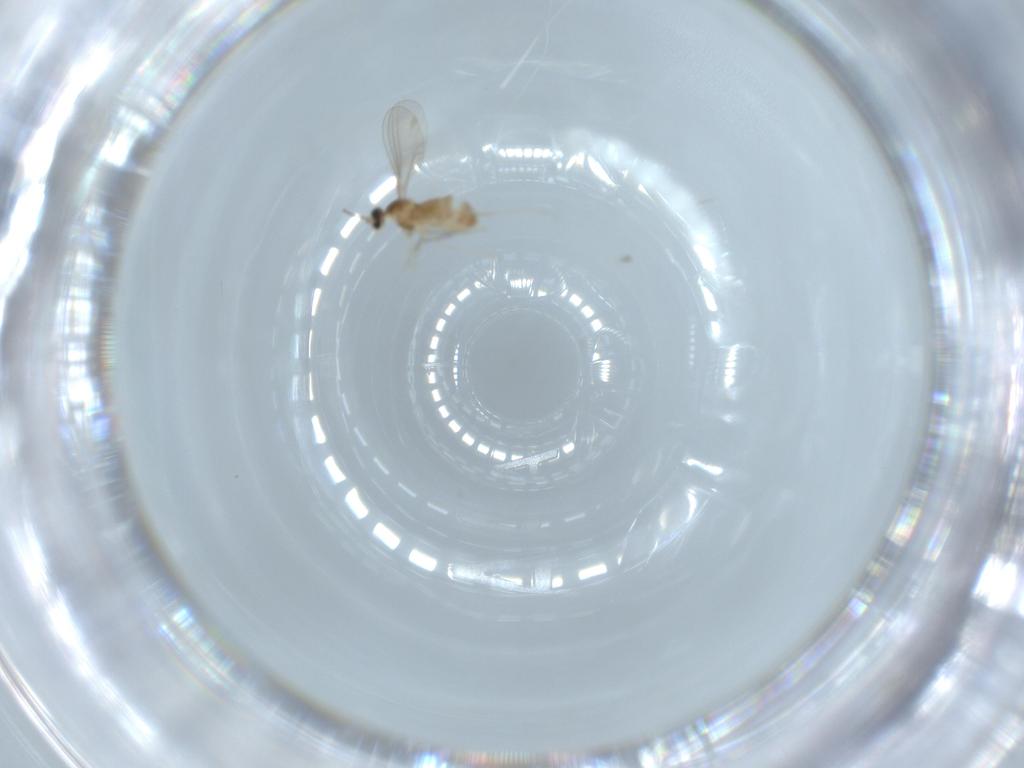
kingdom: Animalia
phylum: Arthropoda
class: Insecta
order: Diptera
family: Cecidomyiidae
